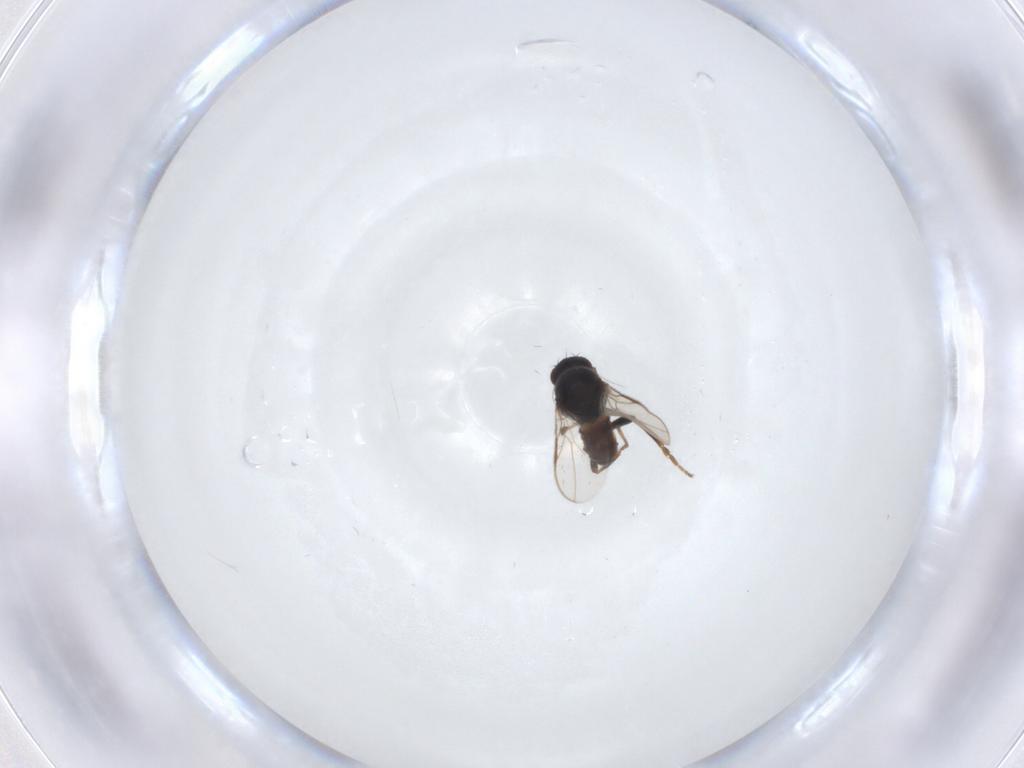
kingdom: Animalia
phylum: Arthropoda
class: Insecta
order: Diptera
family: Sphaeroceridae
